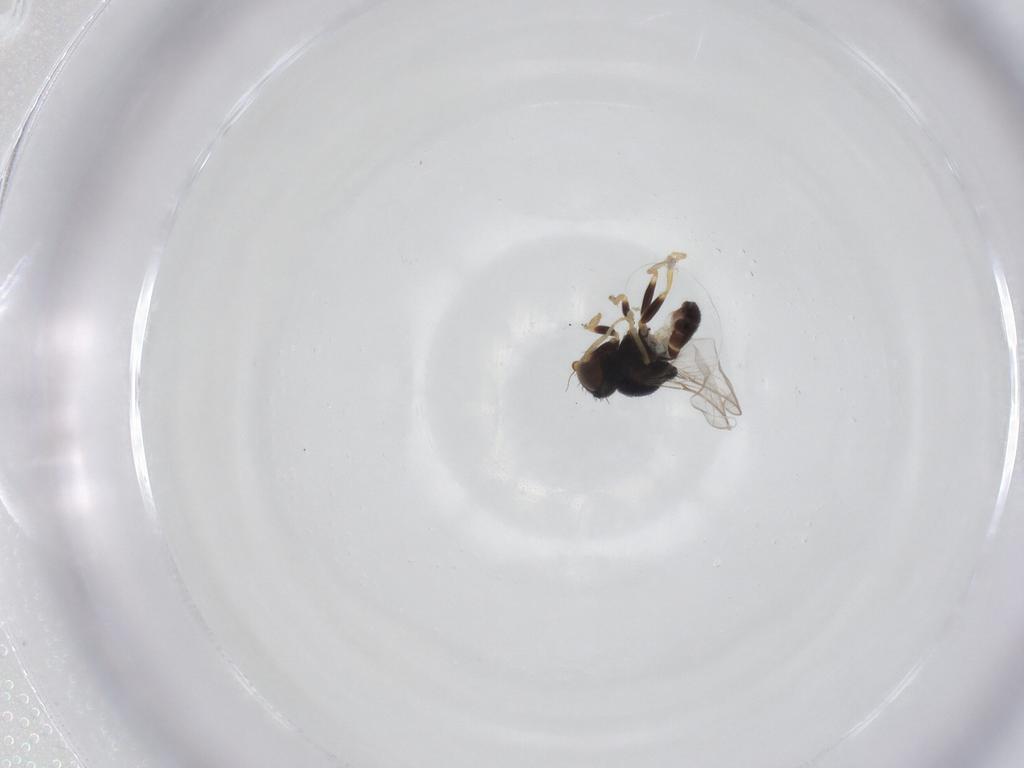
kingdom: Animalia
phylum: Arthropoda
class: Insecta
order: Diptera
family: Chloropidae
